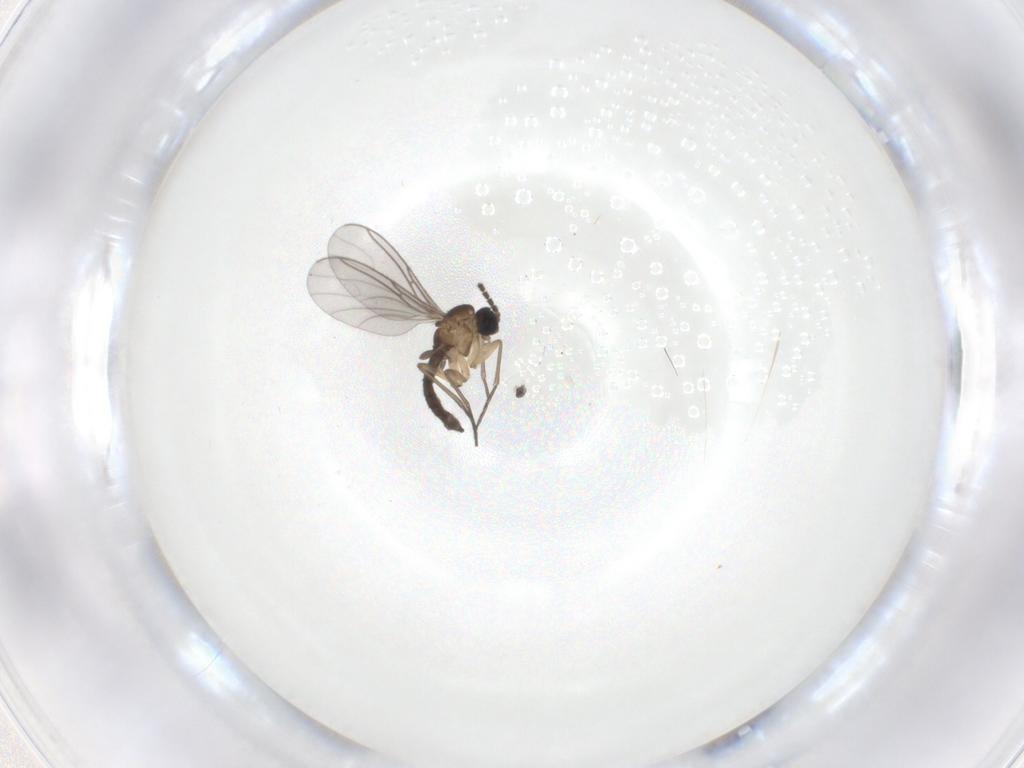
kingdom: Animalia
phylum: Arthropoda
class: Insecta
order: Diptera
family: Sciaridae
